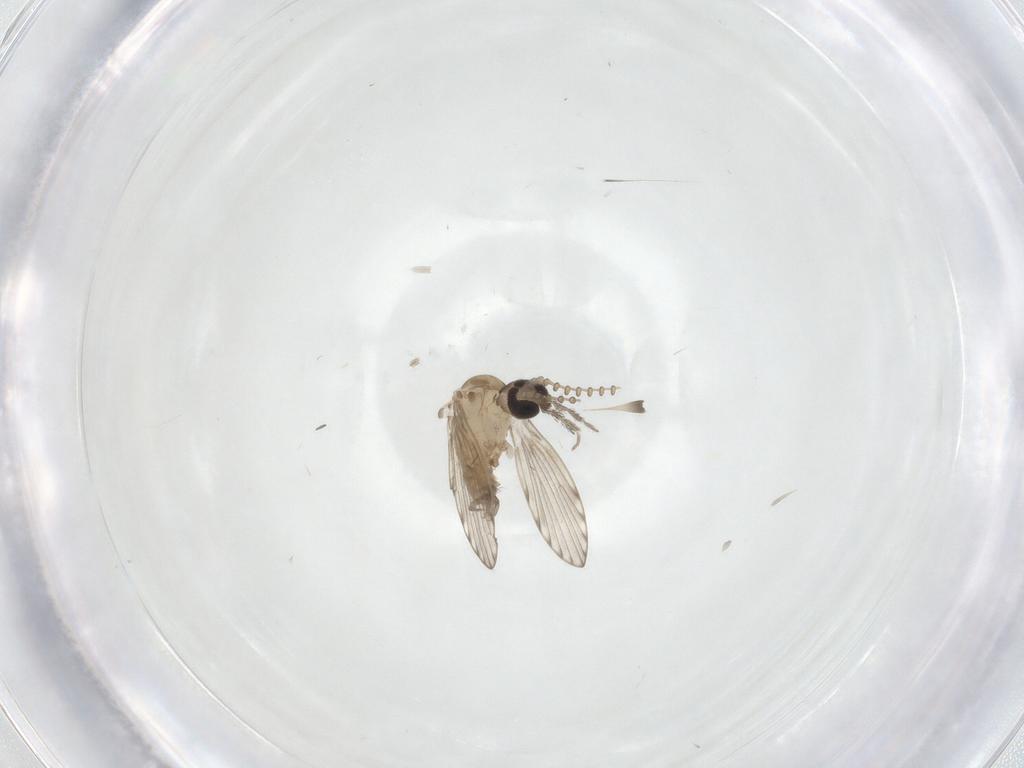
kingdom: Animalia
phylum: Arthropoda
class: Insecta
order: Diptera
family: Psychodidae
